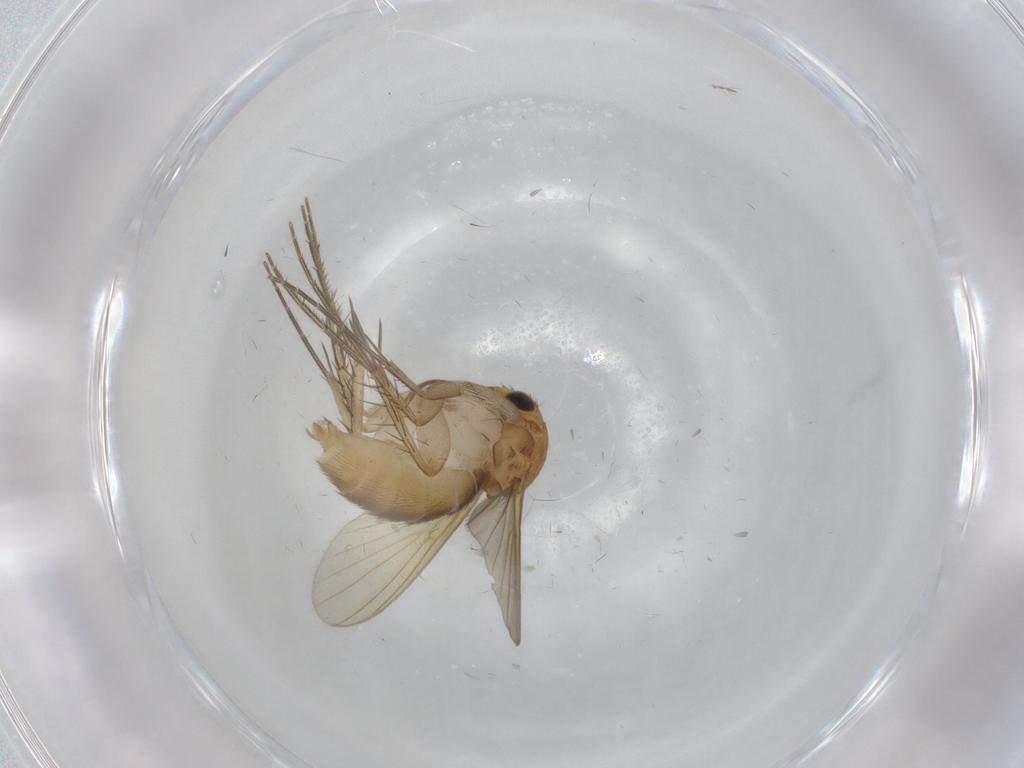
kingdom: Animalia
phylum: Arthropoda
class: Insecta
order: Diptera
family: Mycetophilidae
